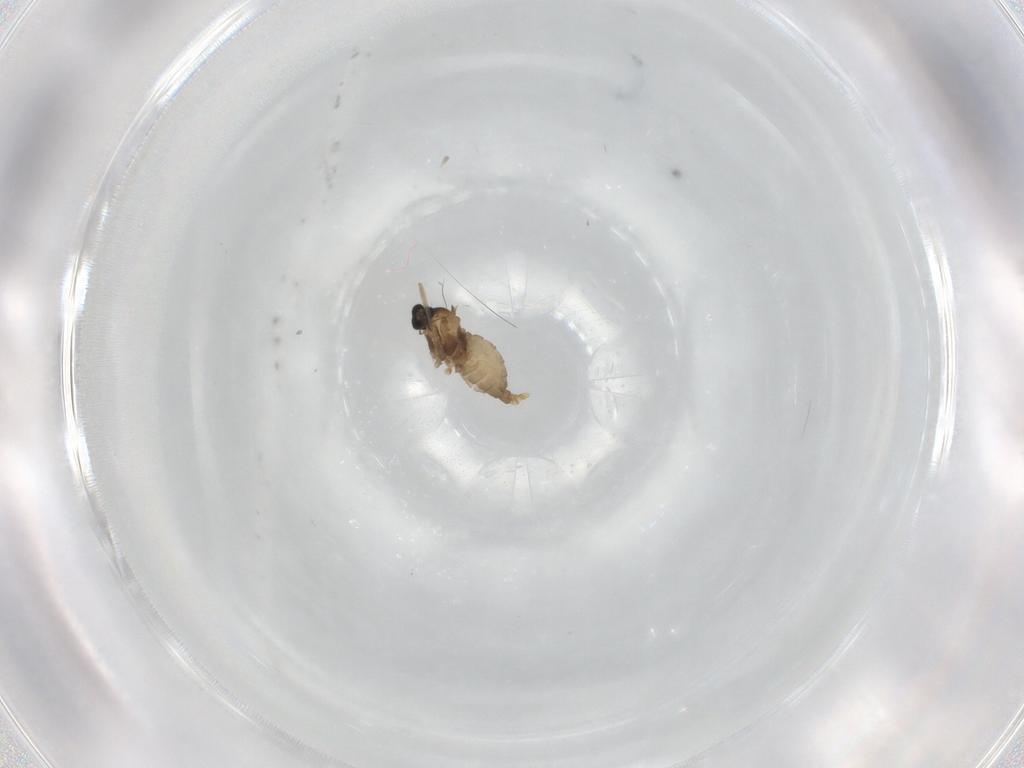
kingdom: Animalia
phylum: Arthropoda
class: Insecta
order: Diptera
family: Cecidomyiidae
